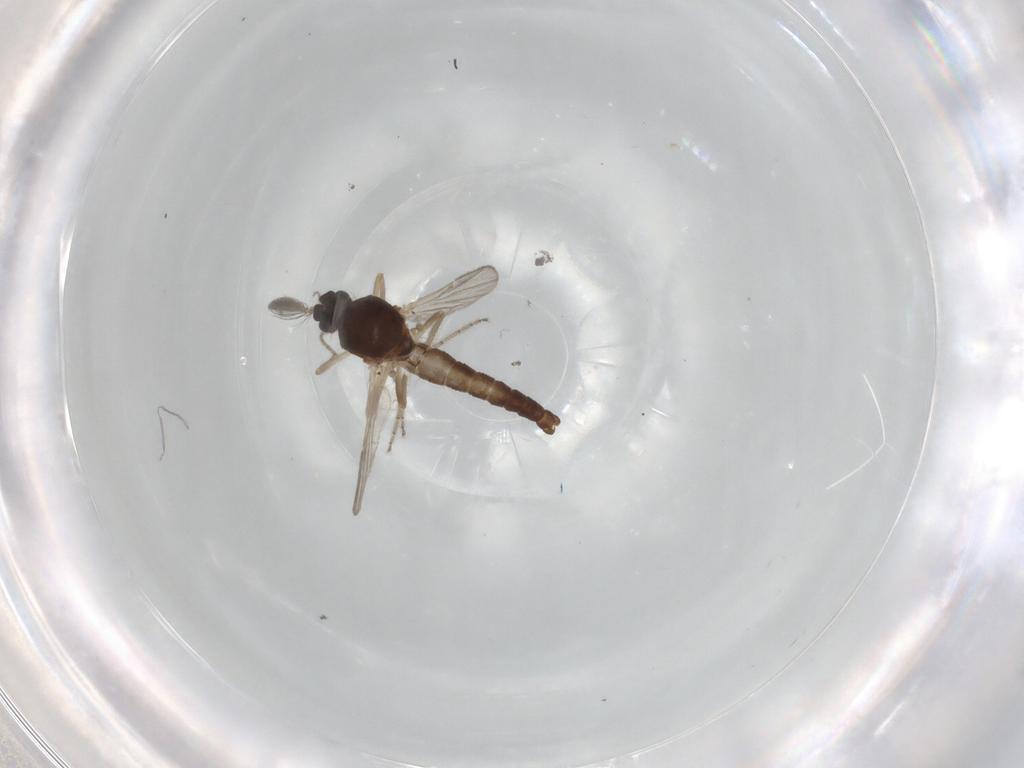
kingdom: Animalia
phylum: Arthropoda
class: Insecta
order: Diptera
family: Ceratopogonidae
